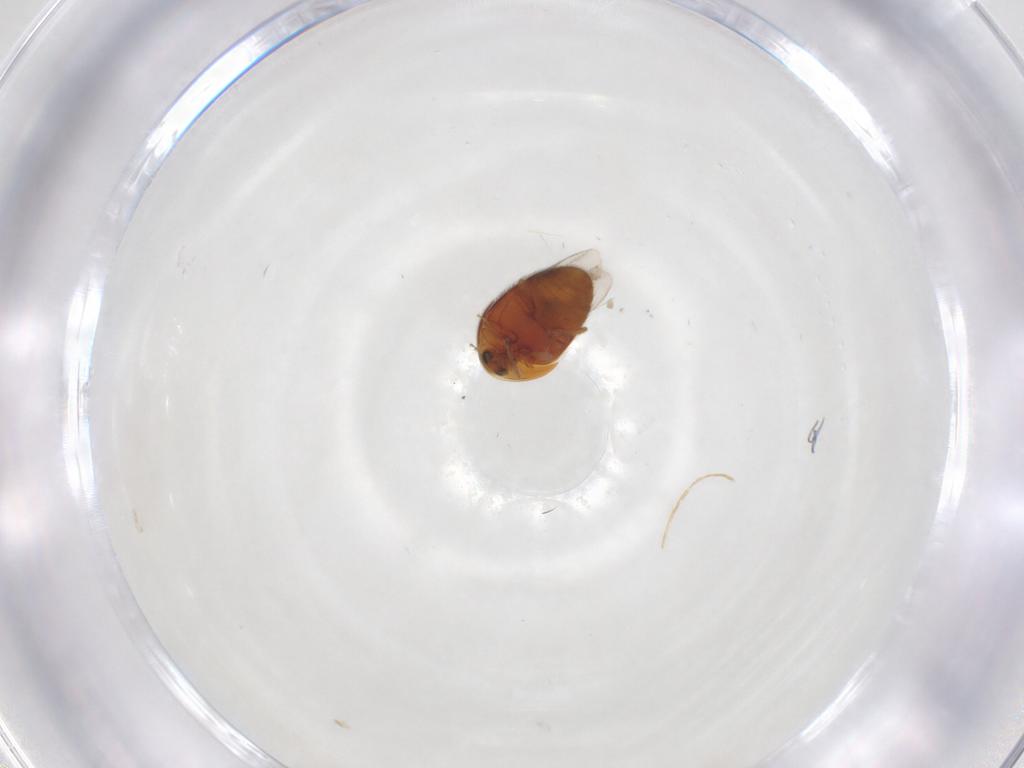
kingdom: Animalia
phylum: Arthropoda
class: Insecta
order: Coleoptera
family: Corylophidae
